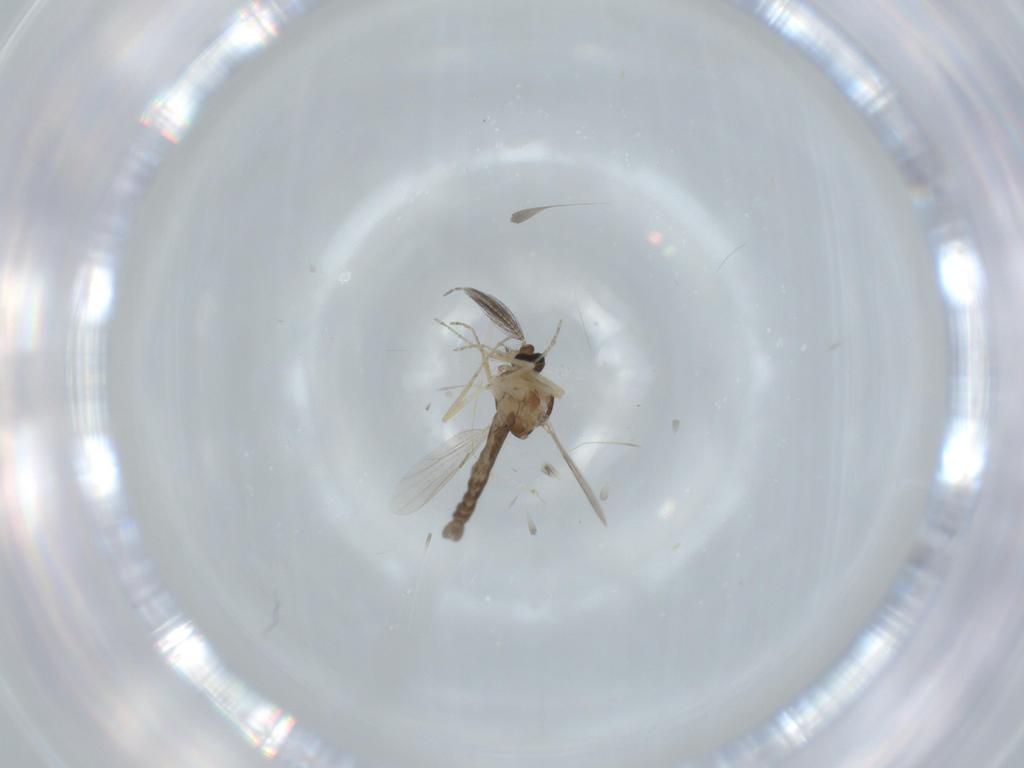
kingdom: Animalia
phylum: Arthropoda
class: Insecta
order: Diptera
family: Ceratopogonidae
